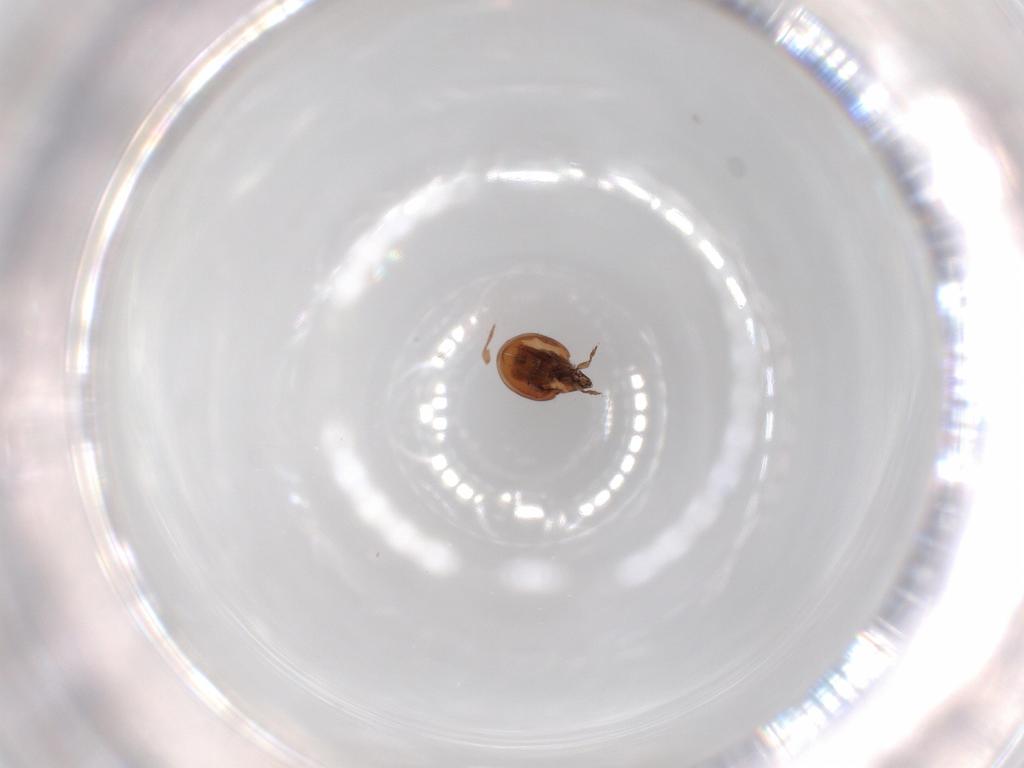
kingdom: Animalia
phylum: Arthropoda
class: Arachnida
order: Sarcoptiformes
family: Mochlozetidae
